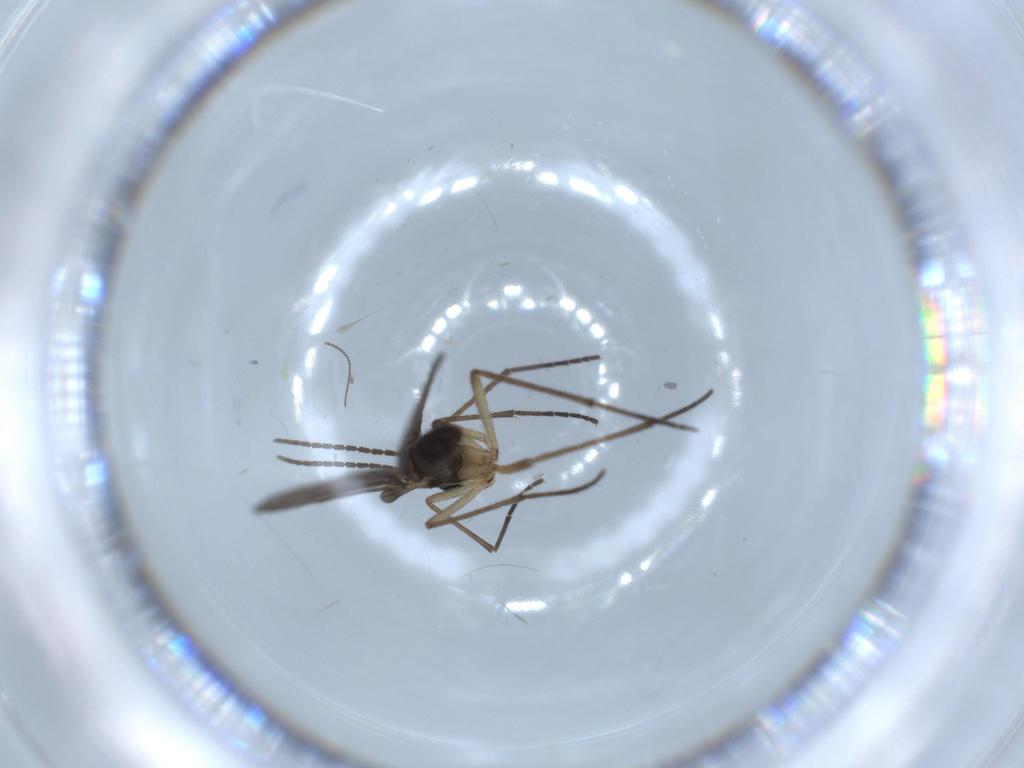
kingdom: Animalia
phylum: Arthropoda
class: Insecta
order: Diptera
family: Sciaridae
